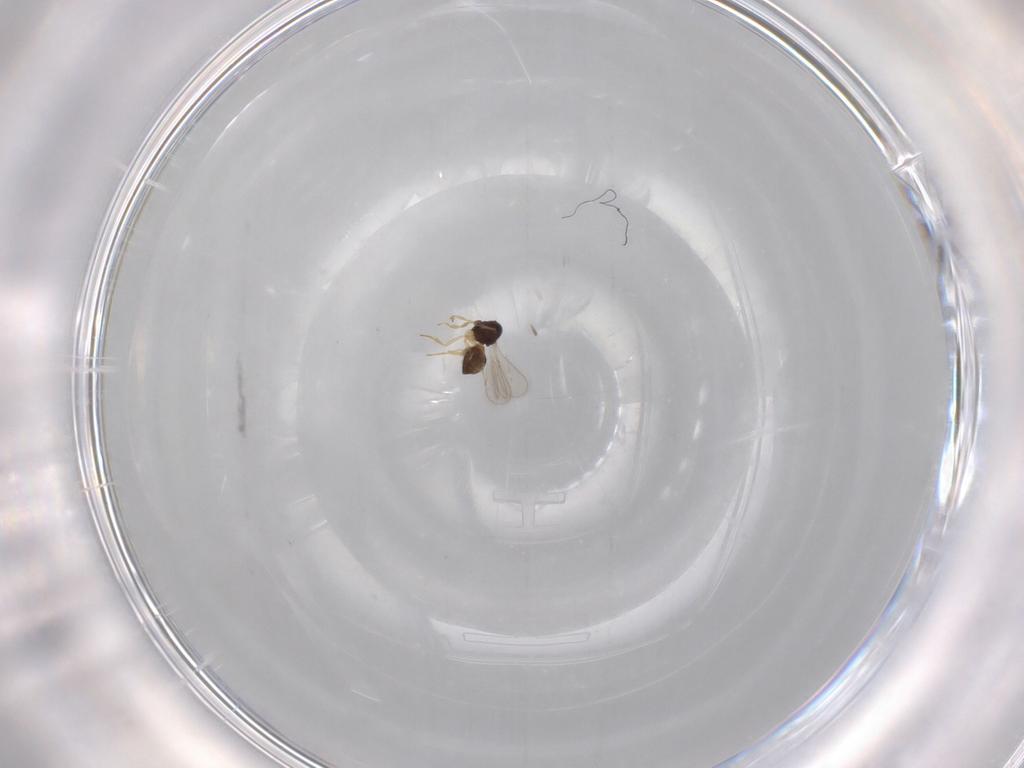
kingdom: Animalia
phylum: Arthropoda
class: Insecta
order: Hymenoptera
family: Scelionidae
